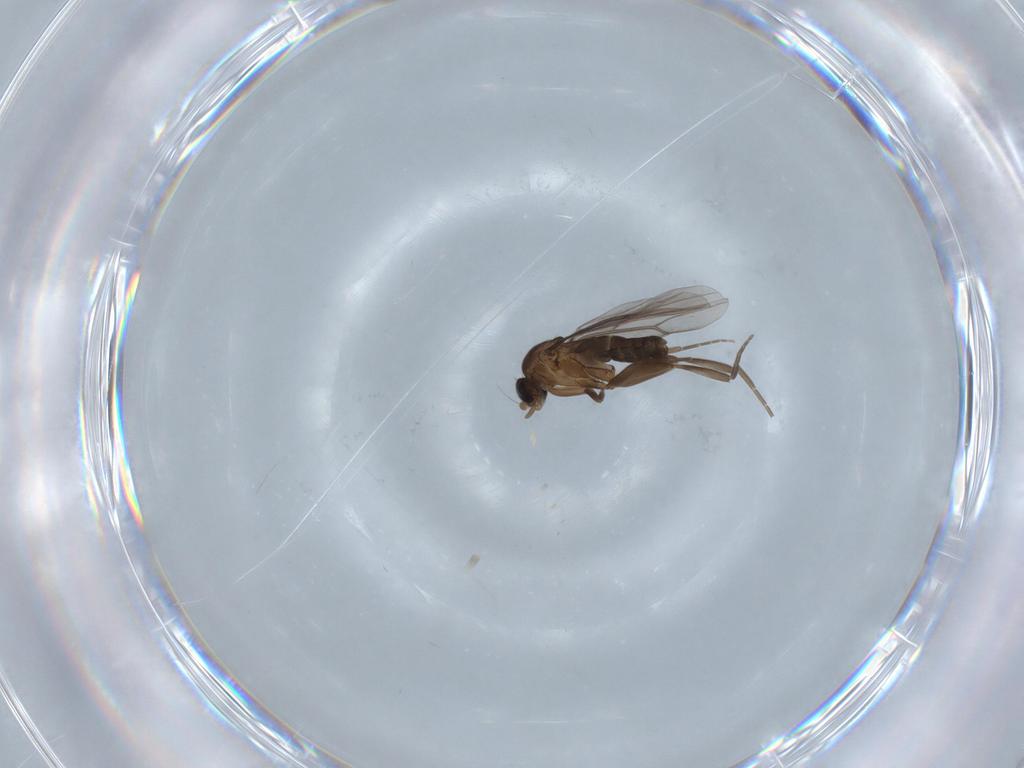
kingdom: Animalia
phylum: Arthropoda
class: Insecta
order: Diptera
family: Phoridae
